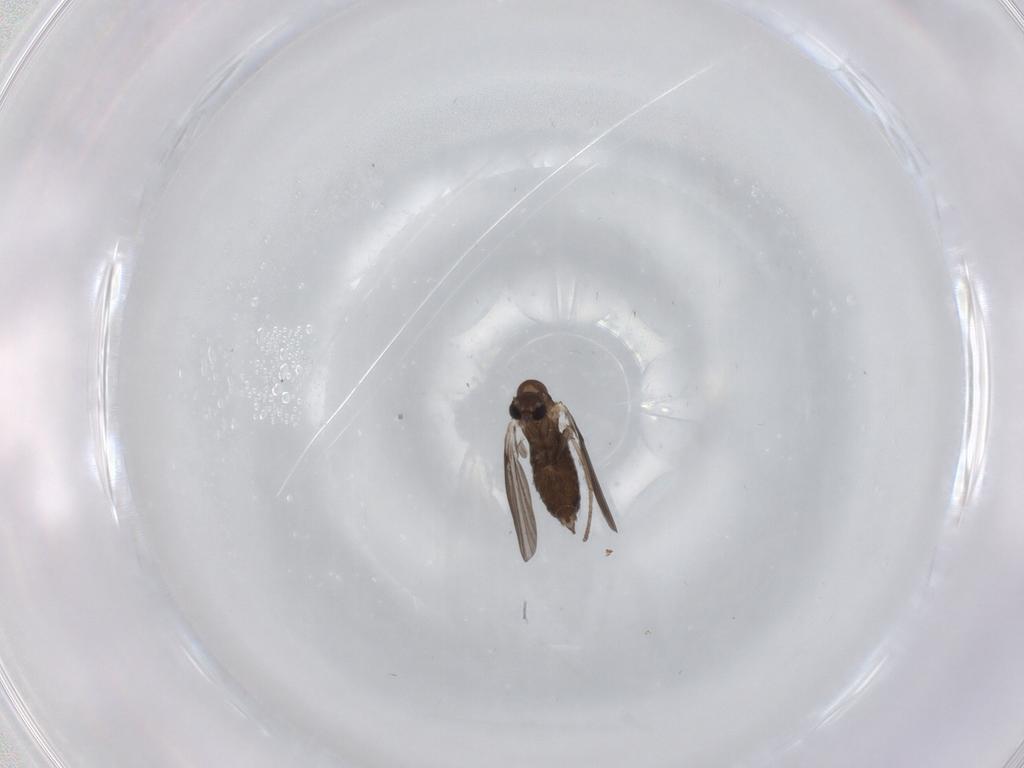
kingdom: Animalia
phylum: Arthropoda
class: Insecta
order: Diptera
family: Dolichopodidae
